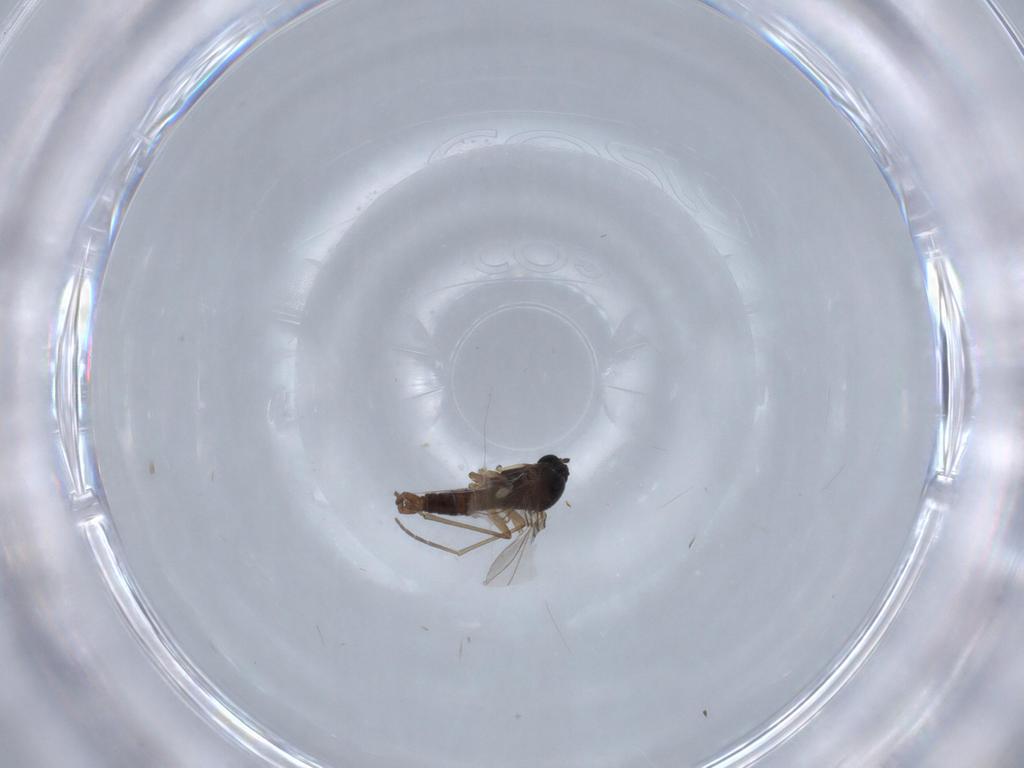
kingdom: Animalia
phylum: Arthropoda
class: Insecta
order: Diptera
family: Sciaridae
